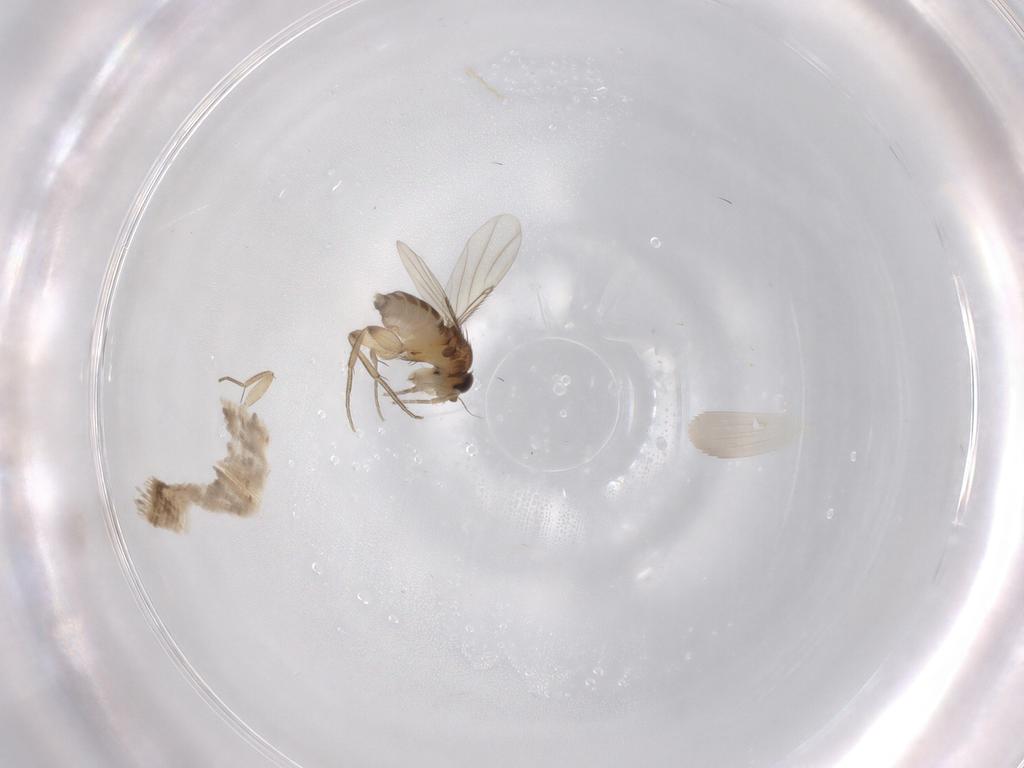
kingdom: Animalia
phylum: Arthropoda
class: Insecta
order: Diptera
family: Phoridae
